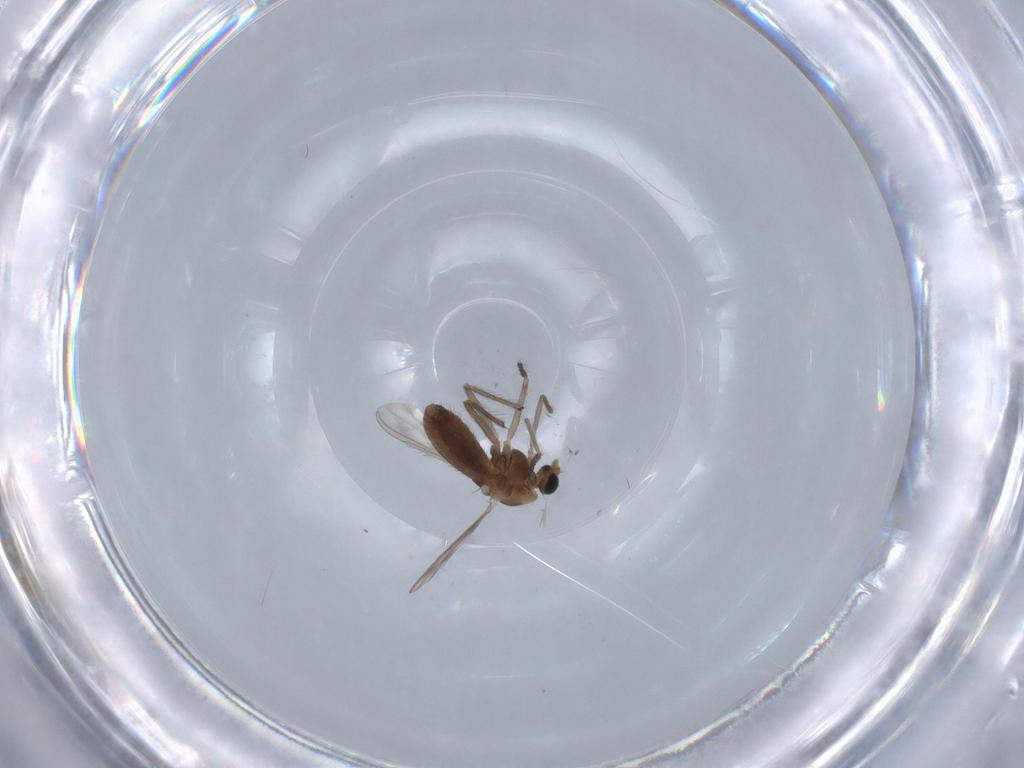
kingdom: Animalia
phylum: Arthropoda
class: Insecta
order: Diptera
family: Chironomidae
